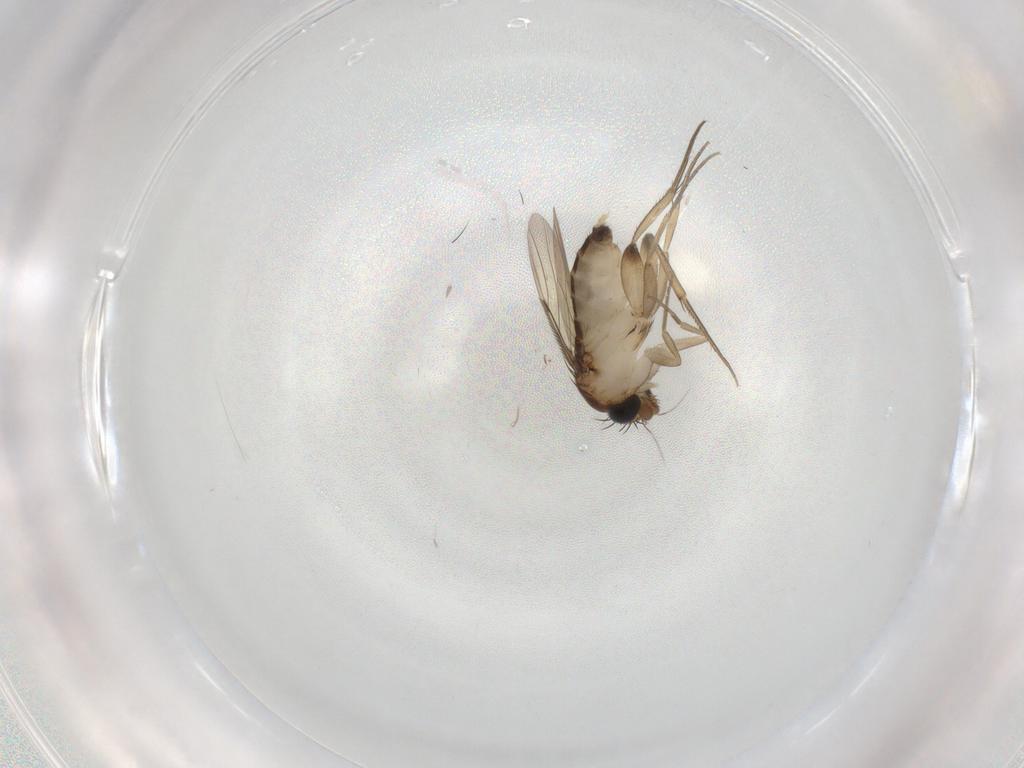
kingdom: Animalia
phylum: Arthropoda
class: Insecta
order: Diptera
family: Phoridae
